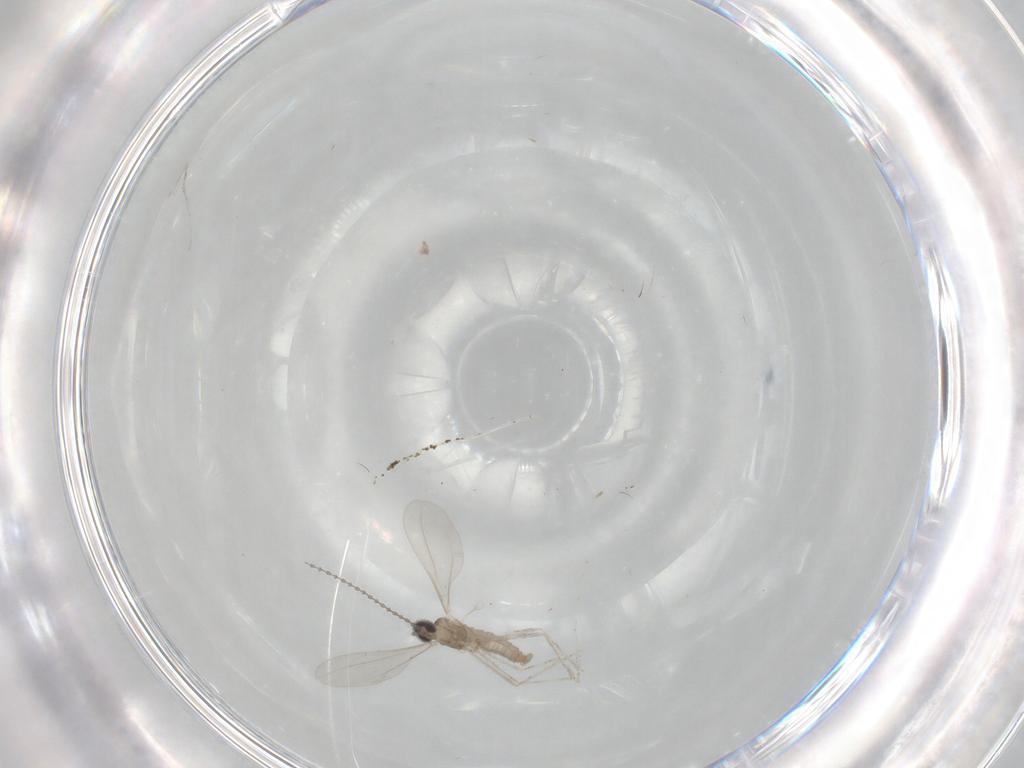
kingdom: Animalia
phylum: Arthropoda
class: Insecta
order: Diptera
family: Cecidomyiidae
